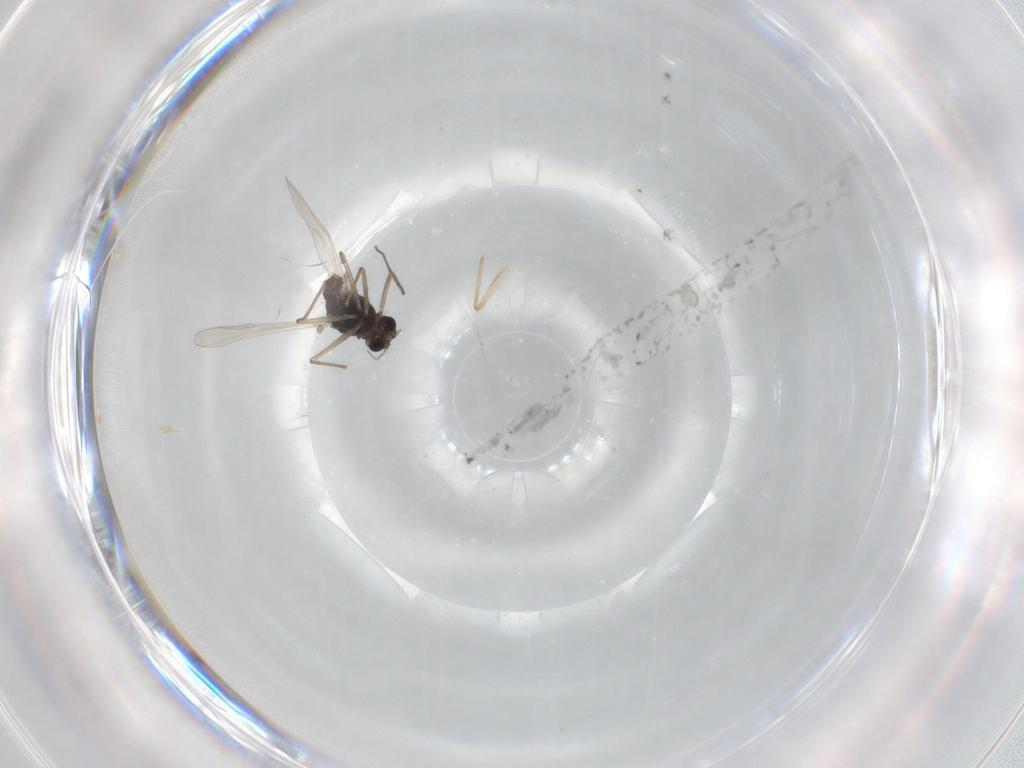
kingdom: Animalia
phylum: Arthropoda
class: Insecta
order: Diptera
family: Chironomidae
